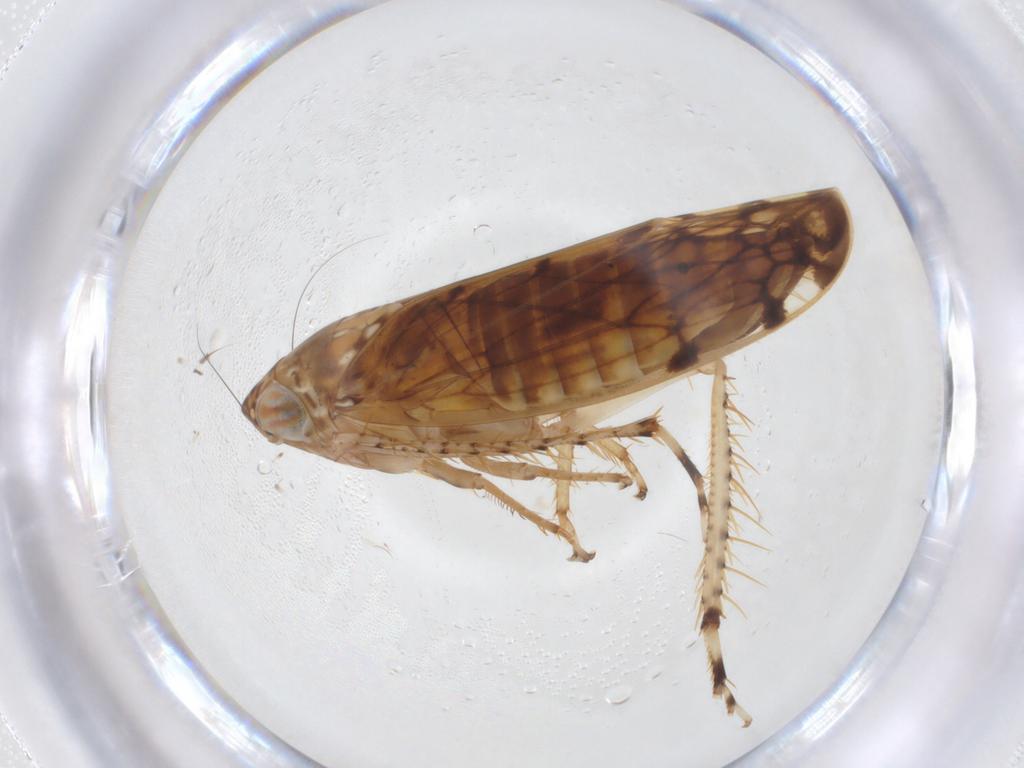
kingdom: Animalia
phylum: Arthropoda
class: Insecta
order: Hemiptera
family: Cicadellidae
